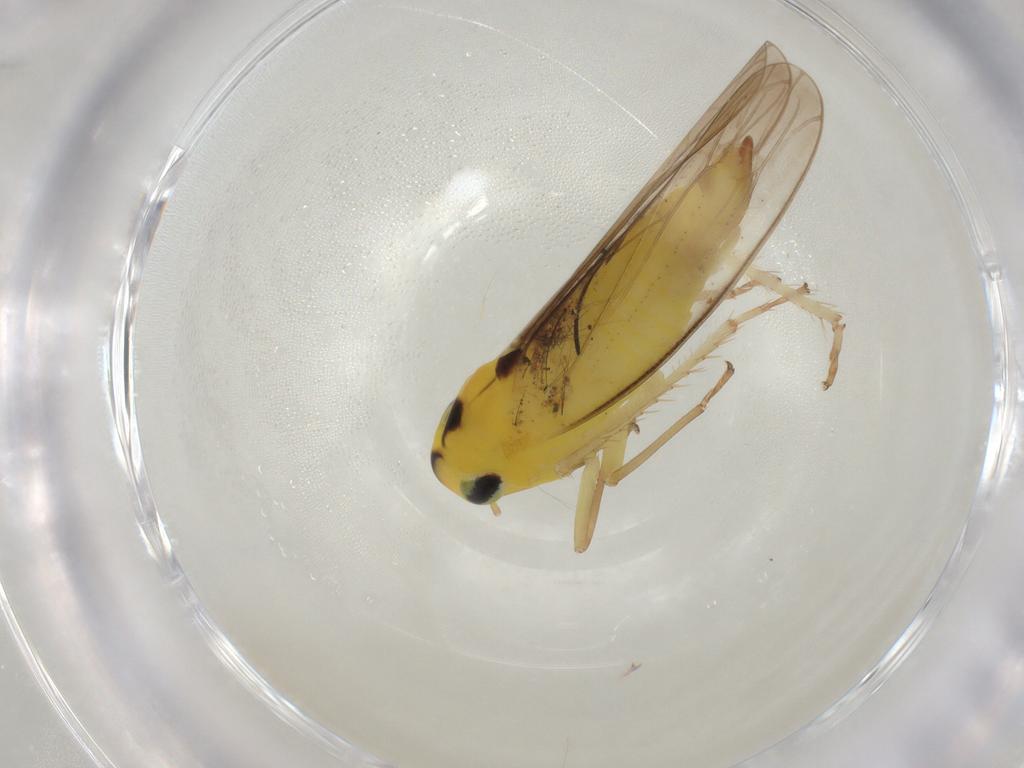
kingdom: Animalia
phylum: Arthropoda
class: Insecta
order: Hemiptera
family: Cicadellidae
